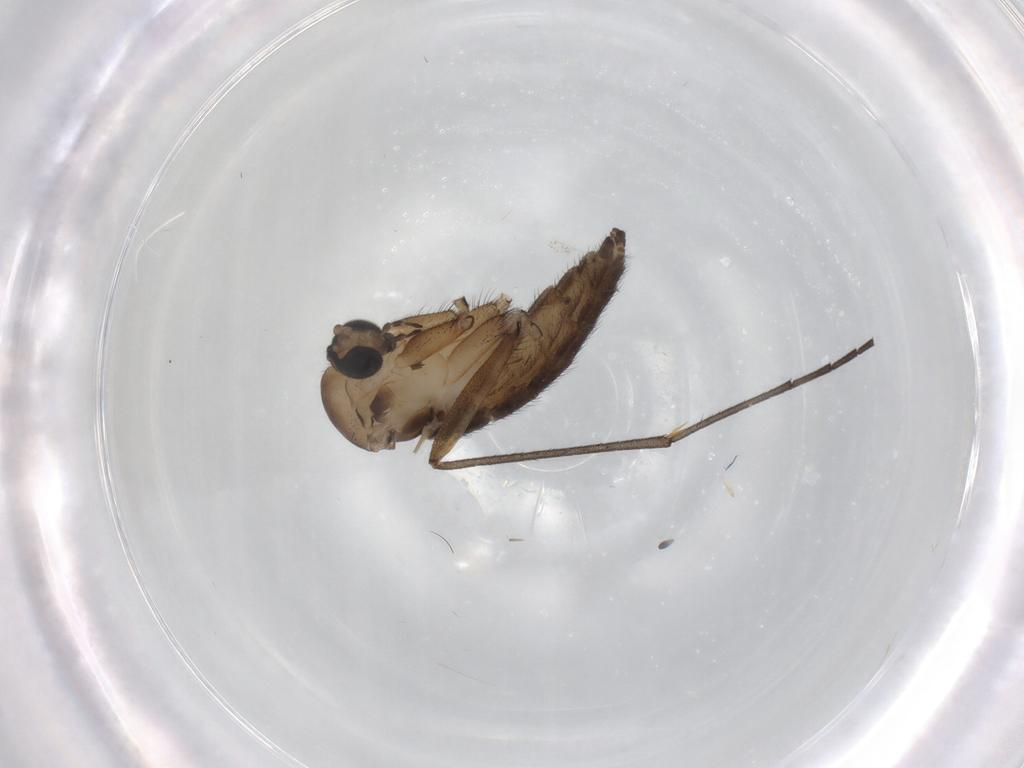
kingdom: Animalia
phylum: Arthropoda
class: Insecta
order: Diptera
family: Sciaridae
